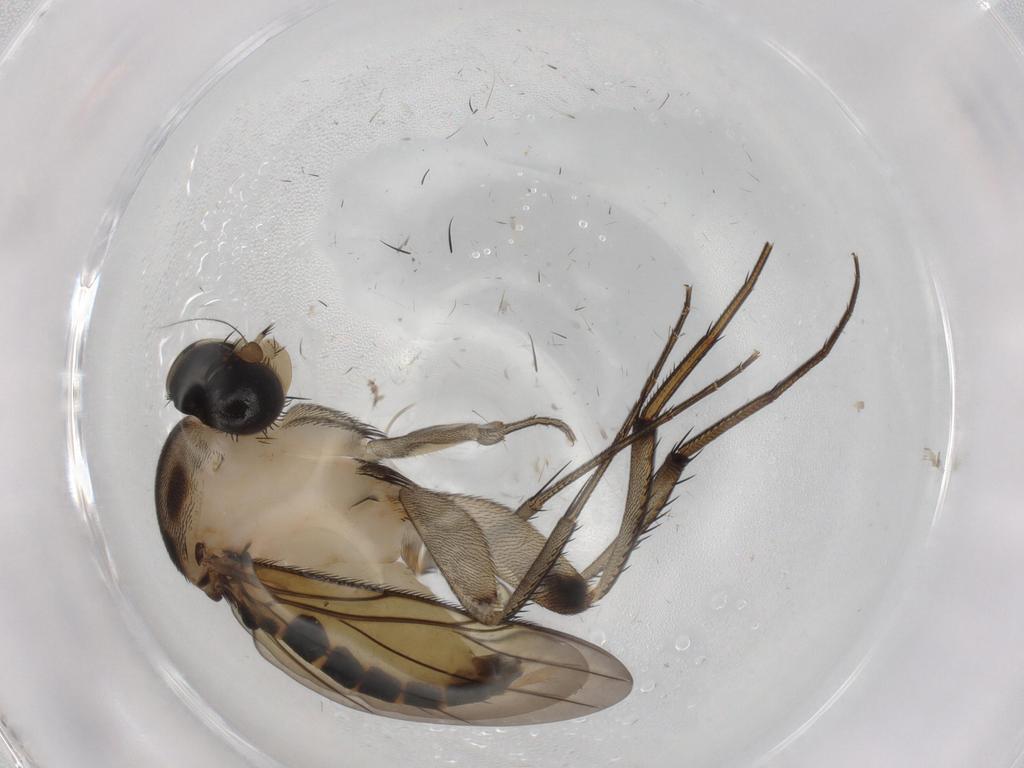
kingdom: Animalia
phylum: Arthropoda
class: Insecta
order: Diptera
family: Phoridae
